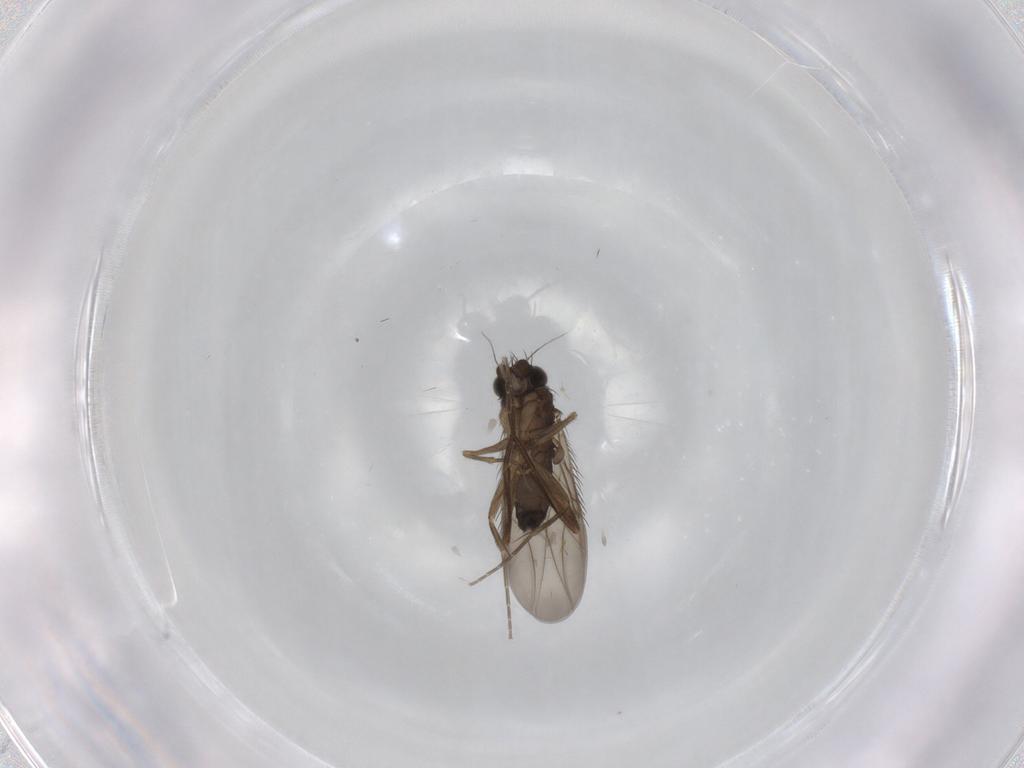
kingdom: Animalia
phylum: Arthropoda
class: Insecta
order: Diptera
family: Phoridae
